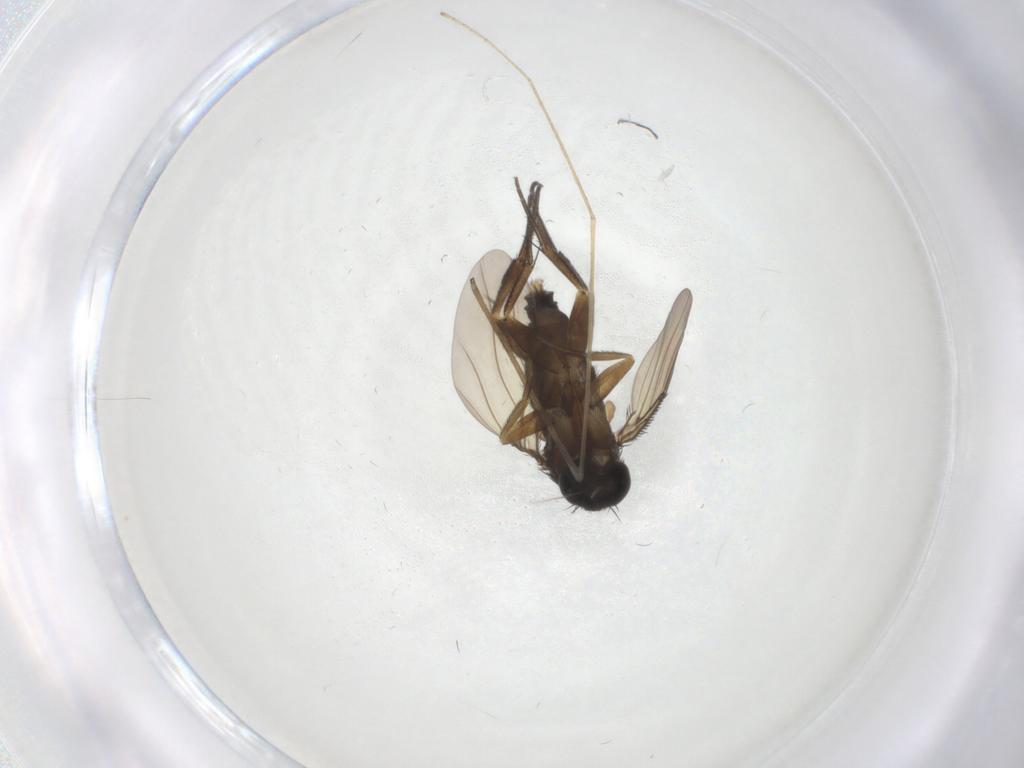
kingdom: Animalia
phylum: Arthropoda
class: Insecta
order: Diptera
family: Phoridae
